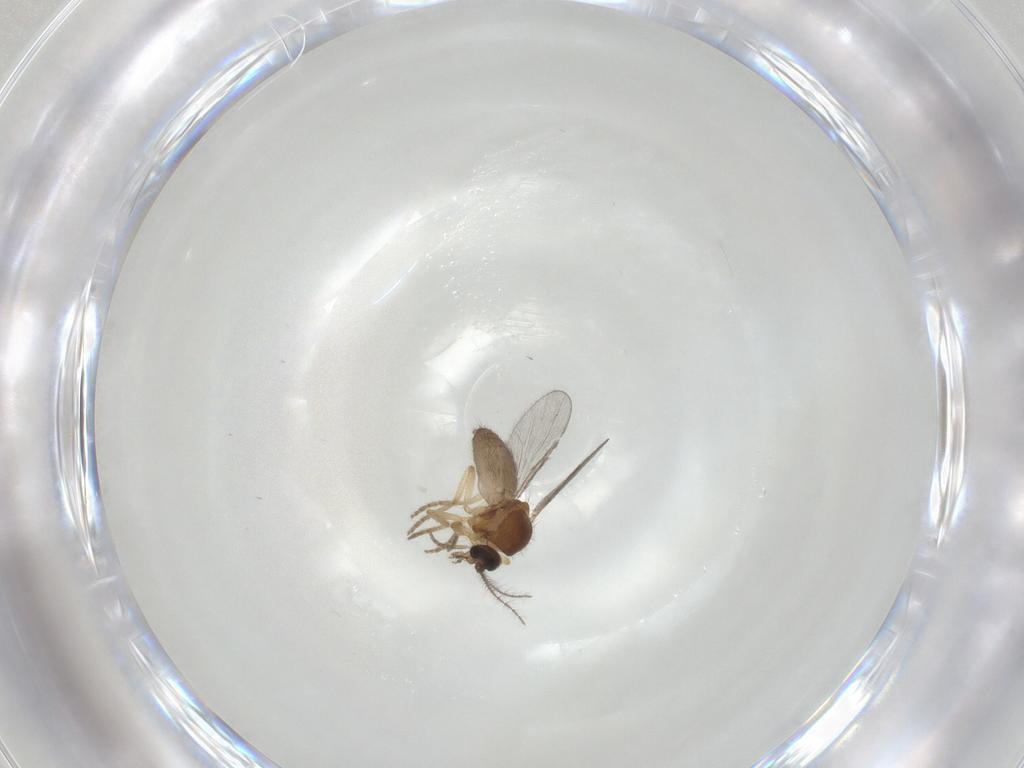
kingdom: Animalia
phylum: Arthropoda
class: Insecta
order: Diptera
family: Ceratopogonidae
